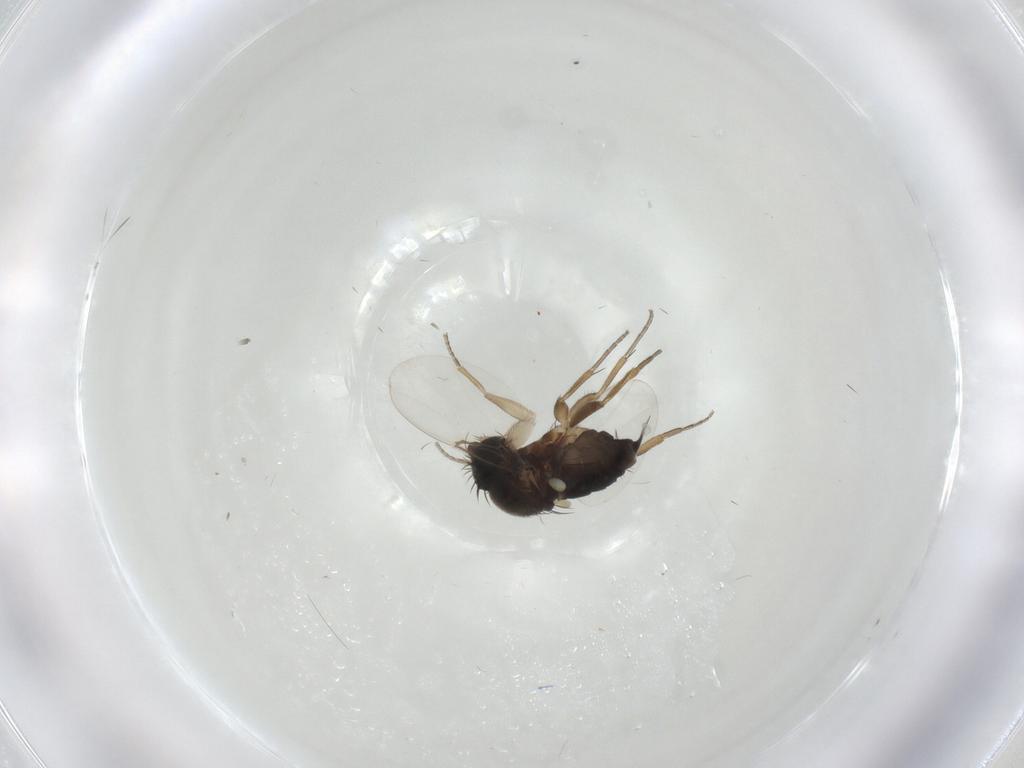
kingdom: Animalia
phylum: Arthropoda
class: Insecta
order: Diptera
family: Phoridae
